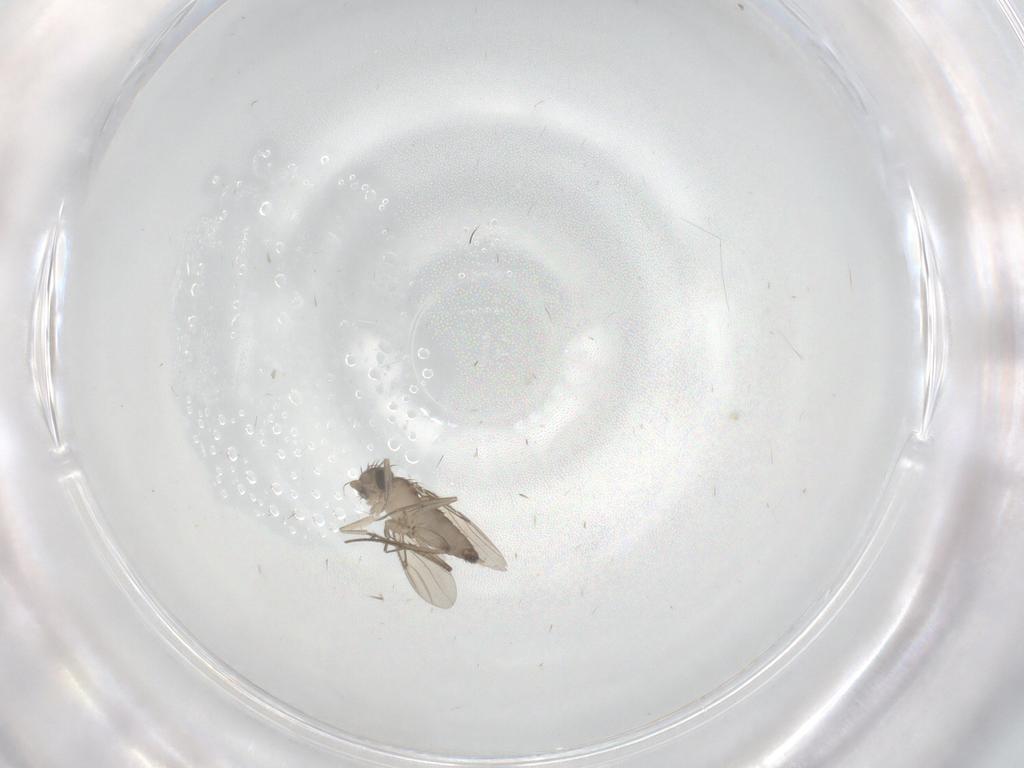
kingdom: Animalia
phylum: Arthropoda
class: Insecta
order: Diptera
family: Phoridae
